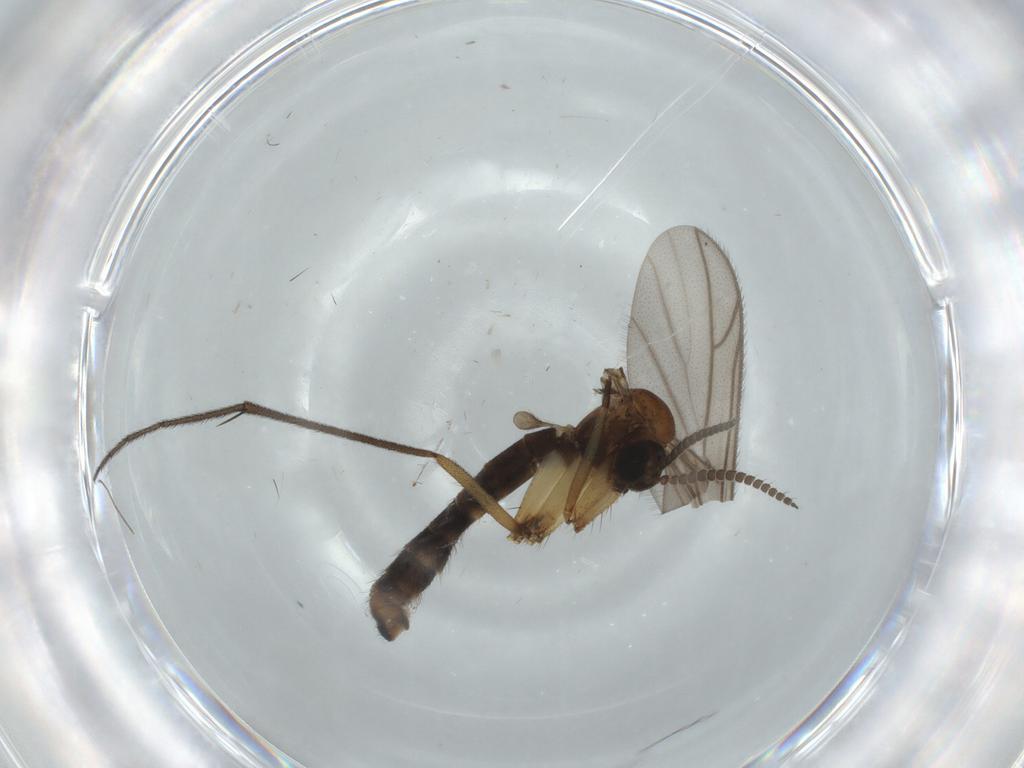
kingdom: Animalia
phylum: Arthropoda
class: Insecta
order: Diptera
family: Ditomyiidae
